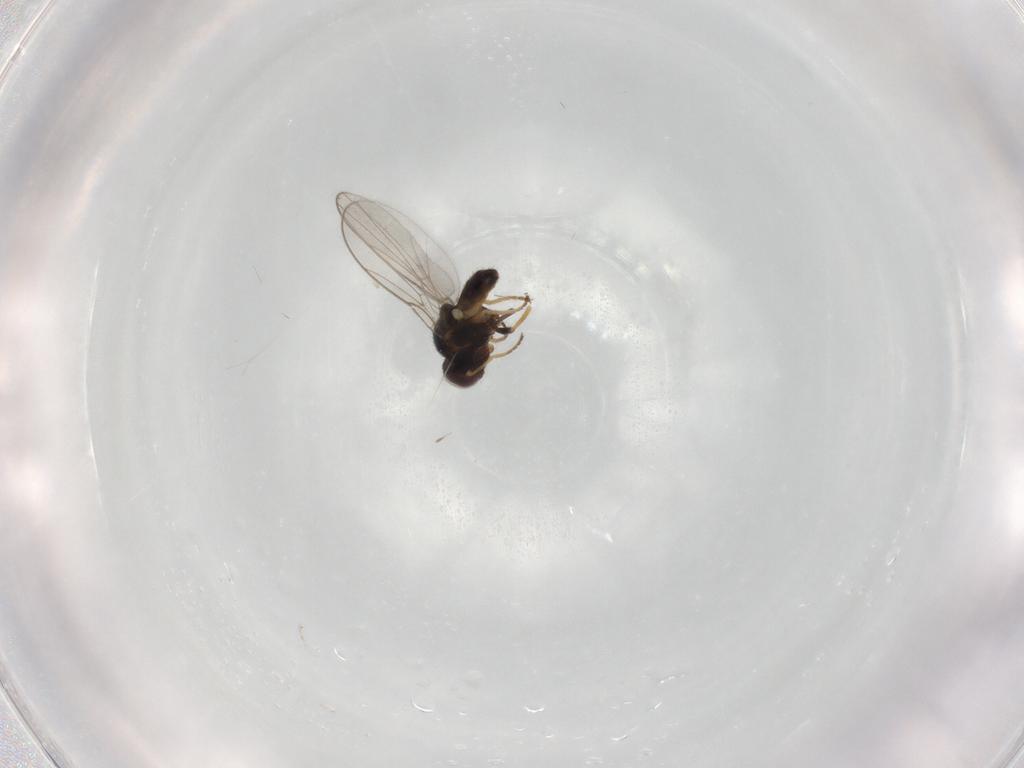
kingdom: Animalia
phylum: Arthropoda
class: Insecta
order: Diptera
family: Chloropidae
